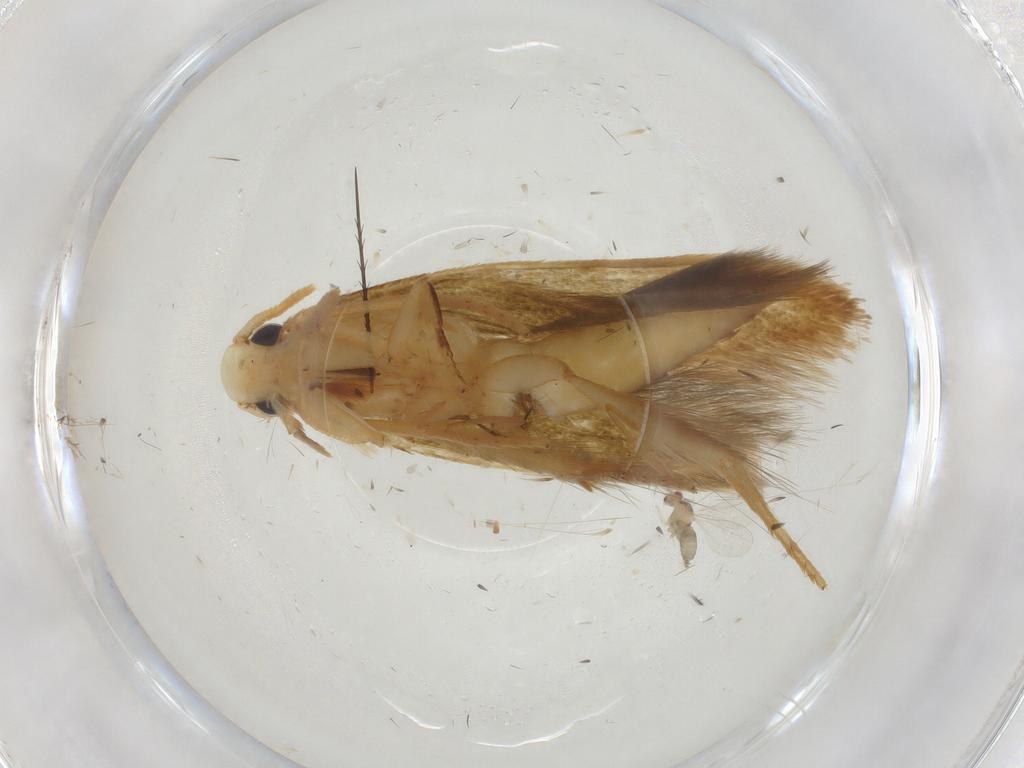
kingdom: Animalia
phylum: Arthropoda
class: Insecta
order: Lepidoptera
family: Tineidae
